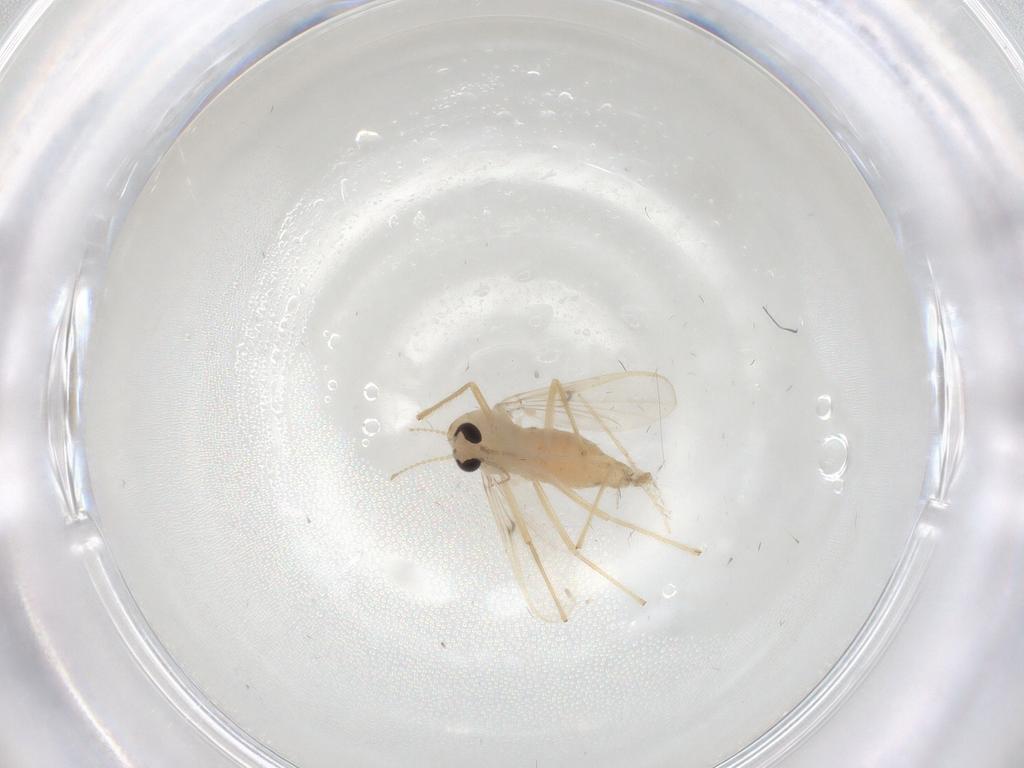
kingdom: Animalia
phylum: Arthropoda
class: Insecta
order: Diptera
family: Chironomidae
